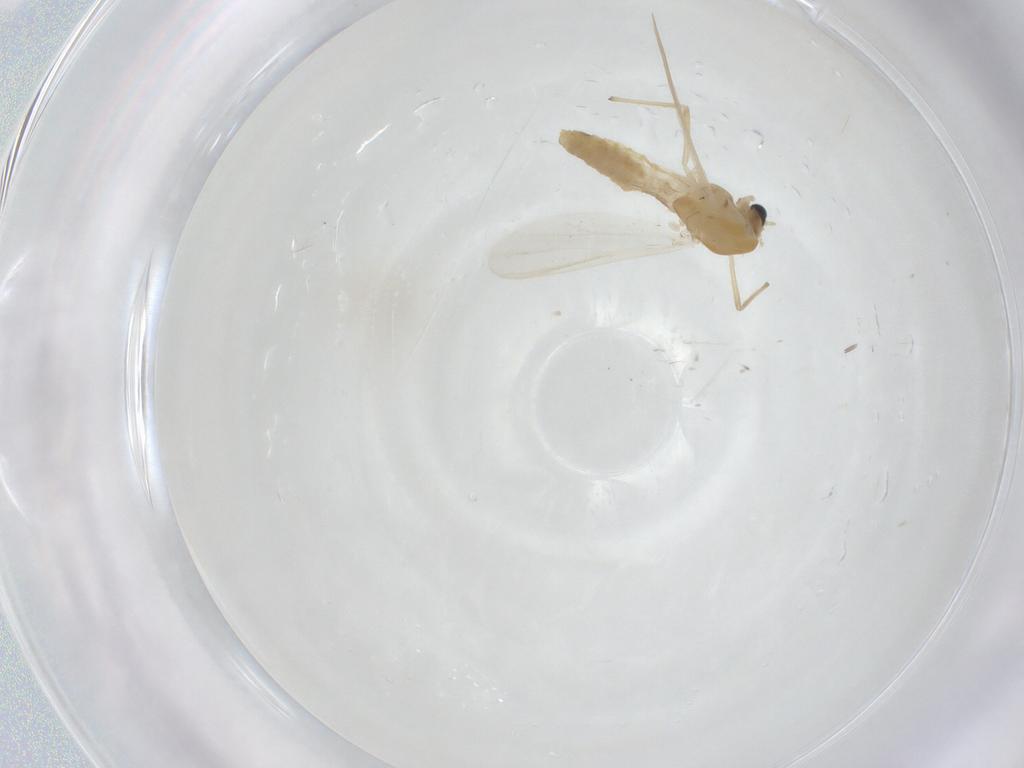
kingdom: Animalia
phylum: Arthropoda
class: Insecta
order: Diptera
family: Chironomidae
